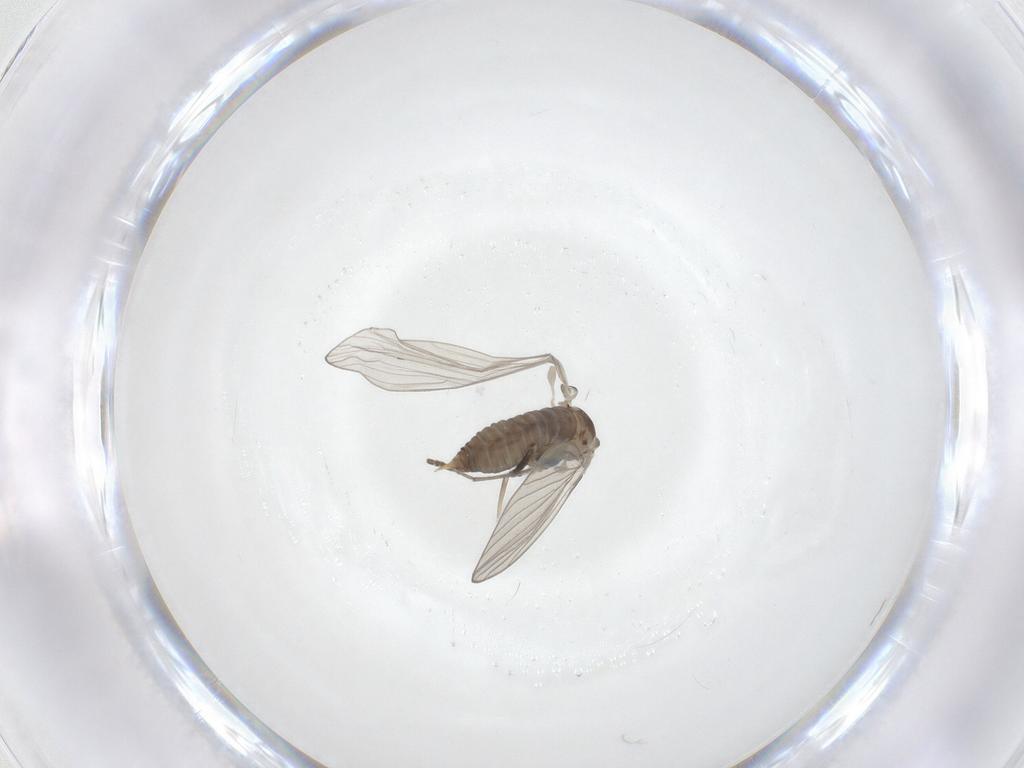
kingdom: Animalia
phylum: Arthropoda
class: Insecta
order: Diptera
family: Psychodidae
